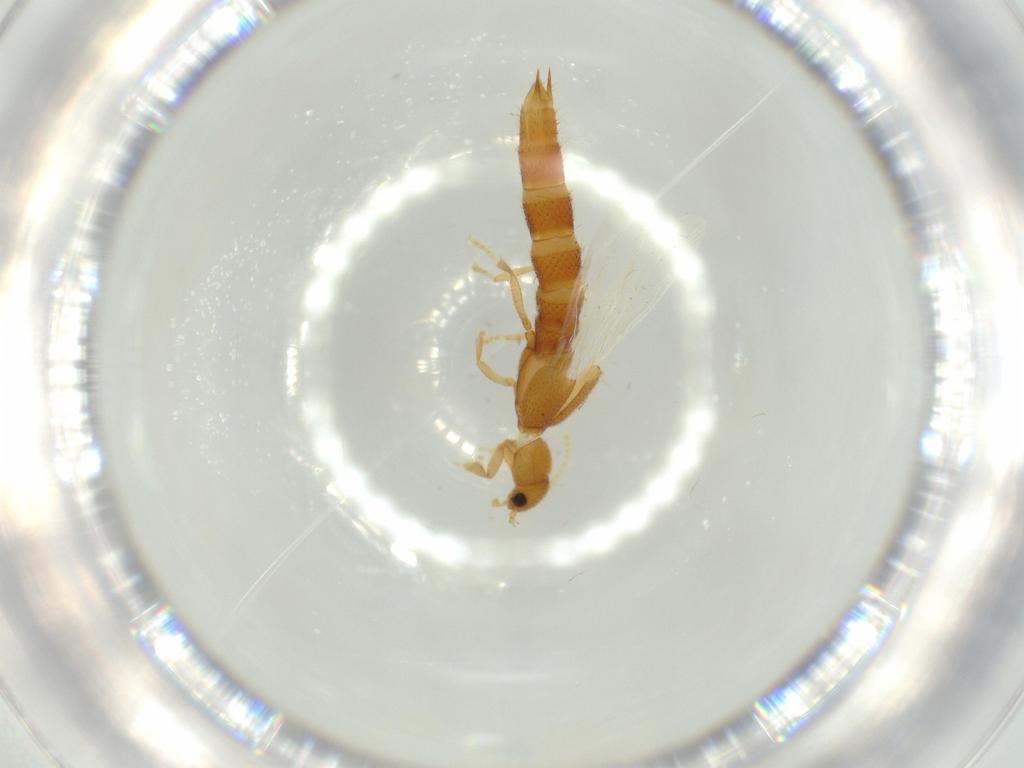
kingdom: Animalia
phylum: Arthropoda
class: Insecta
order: Coleoptera
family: Staphylinidae
